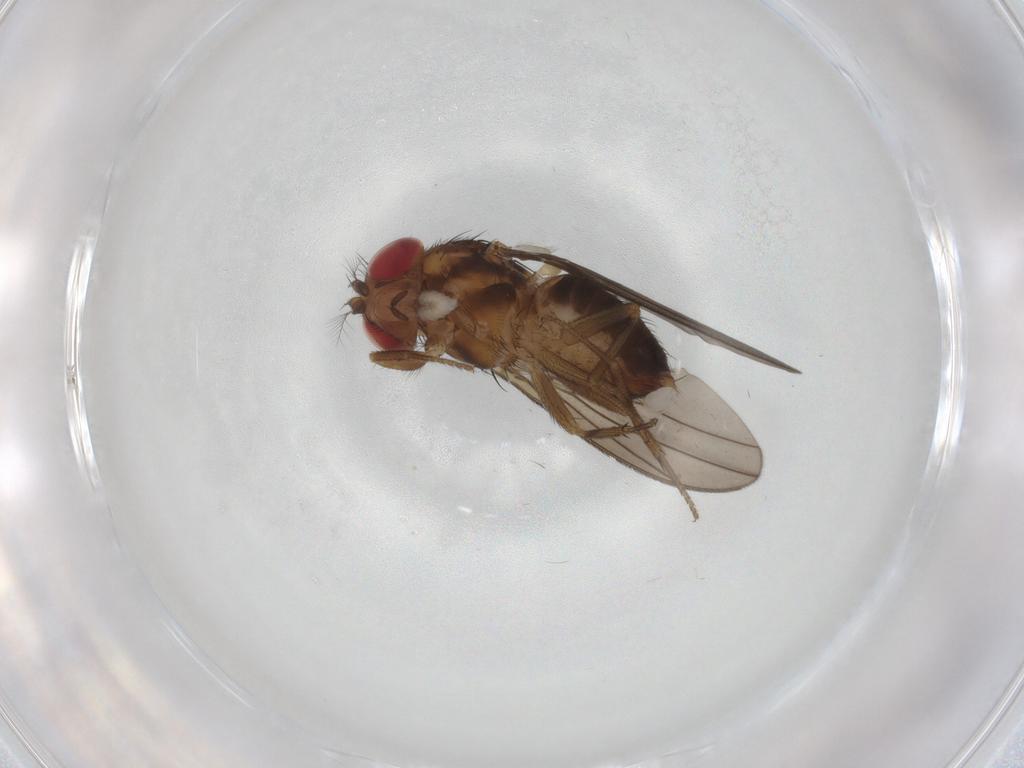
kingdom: Animalia
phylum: Arthropoda
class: Insecta
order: Diptera
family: Drosophilidae
